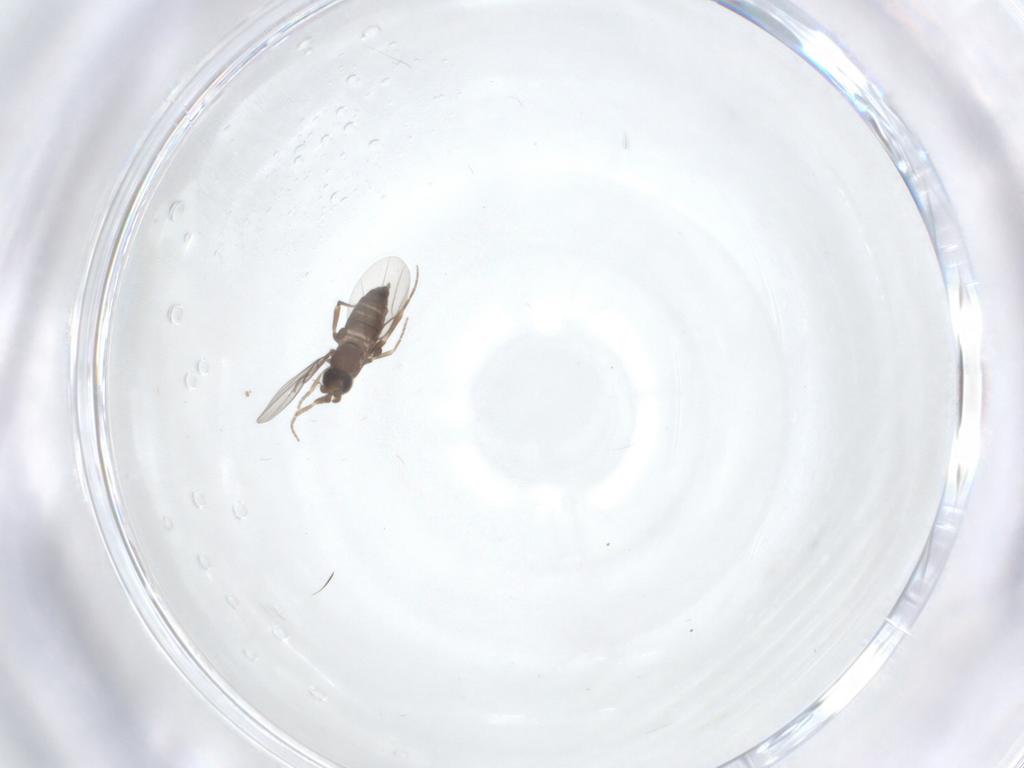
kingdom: Animalia
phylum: Arthropoda
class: Insecta
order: Diptera
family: Phoridae
